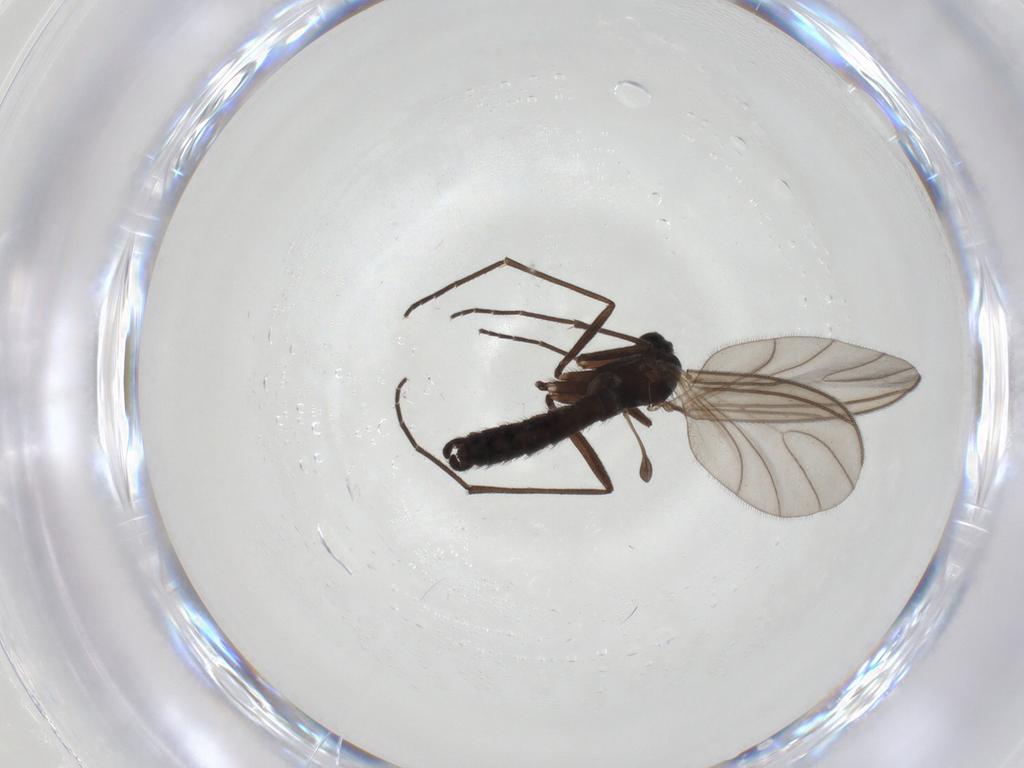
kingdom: Animalia
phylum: Arthropoda
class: Insecta
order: Diptera
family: Sciaridae
